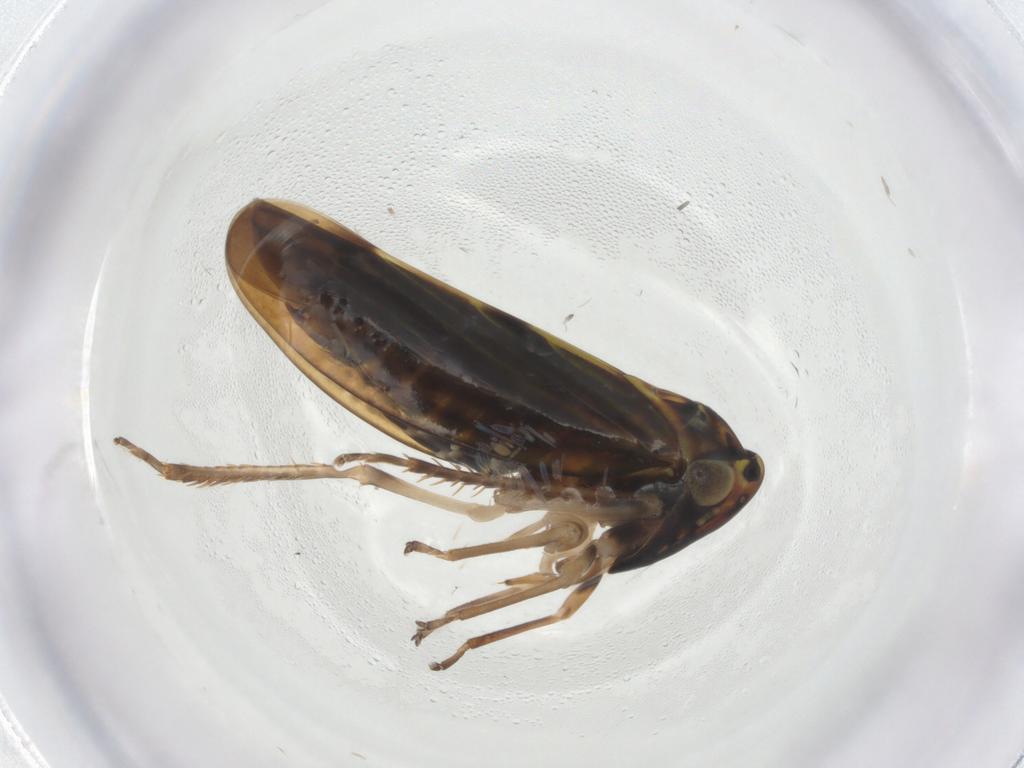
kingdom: Animalia
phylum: Arthropoda
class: Insecta
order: Hemiptera
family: Cicadellidae
